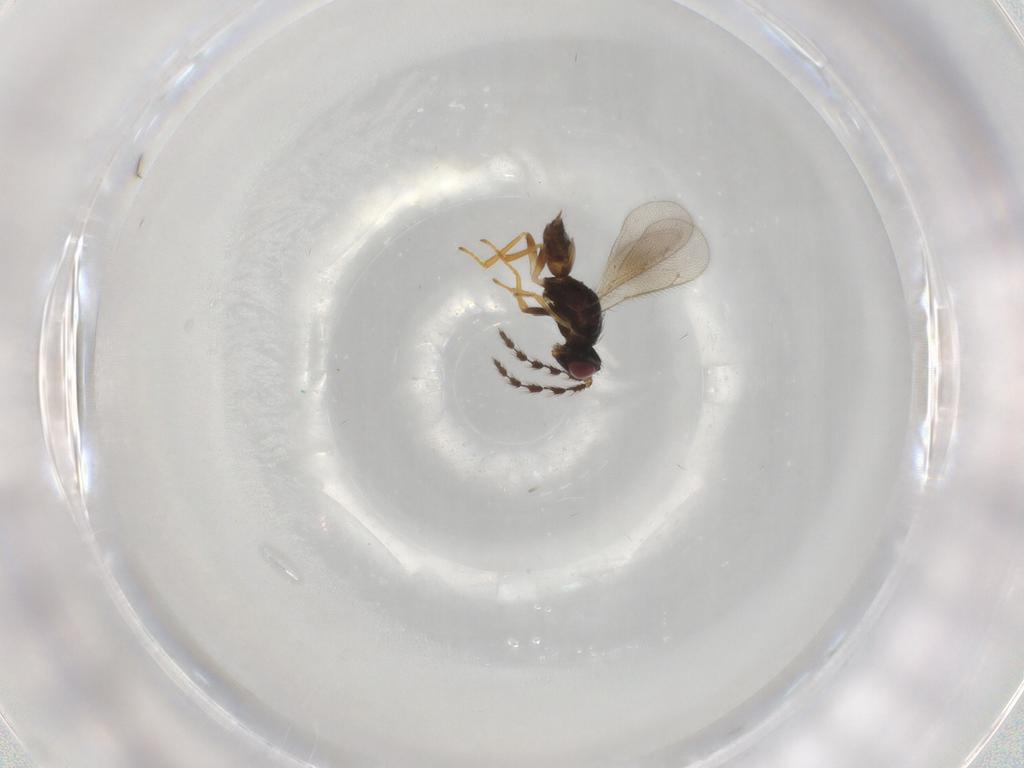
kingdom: Animalia
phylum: Arthropoda
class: Insecta
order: Hymenoptera
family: Eulophidae
